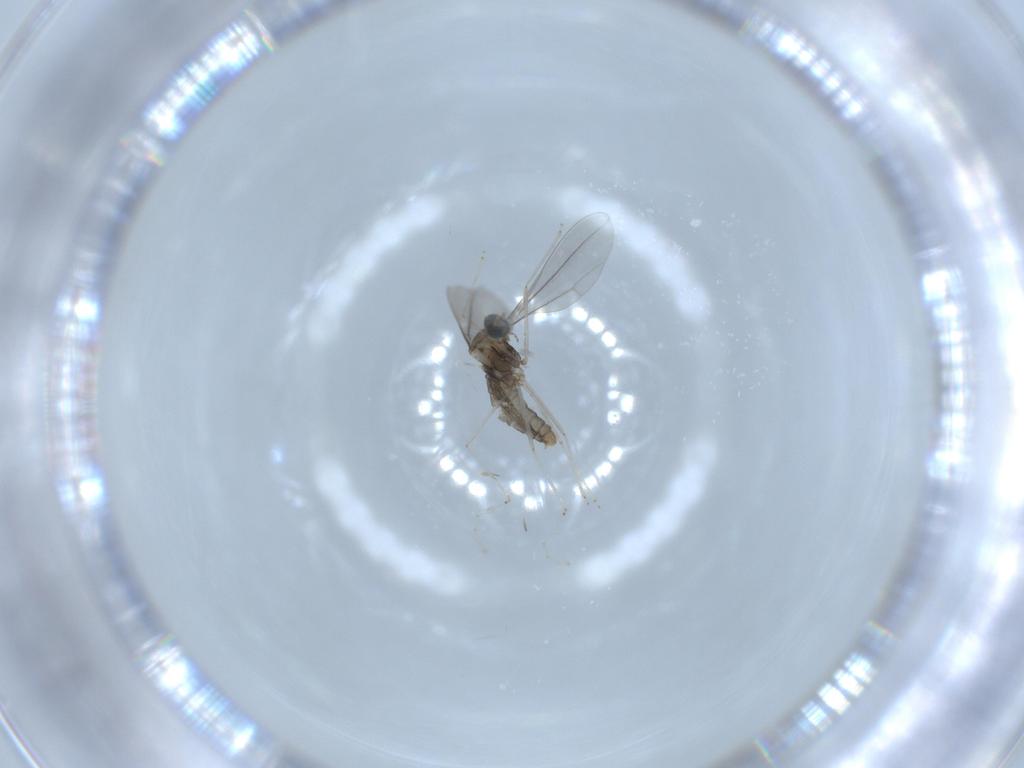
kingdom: Animalia
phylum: Arthropoda
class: Insecta
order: Diptera
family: Cecidomyiidae
